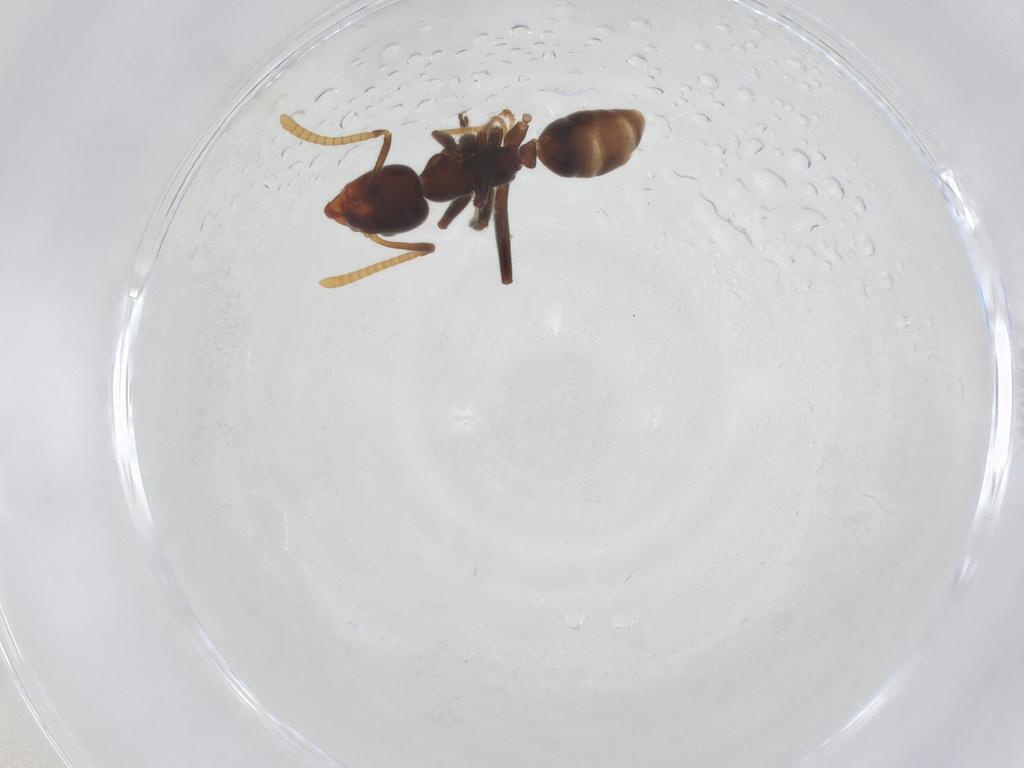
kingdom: Animalia
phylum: Arthropoda
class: Insecta
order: Hymenoptera
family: Formicidae
